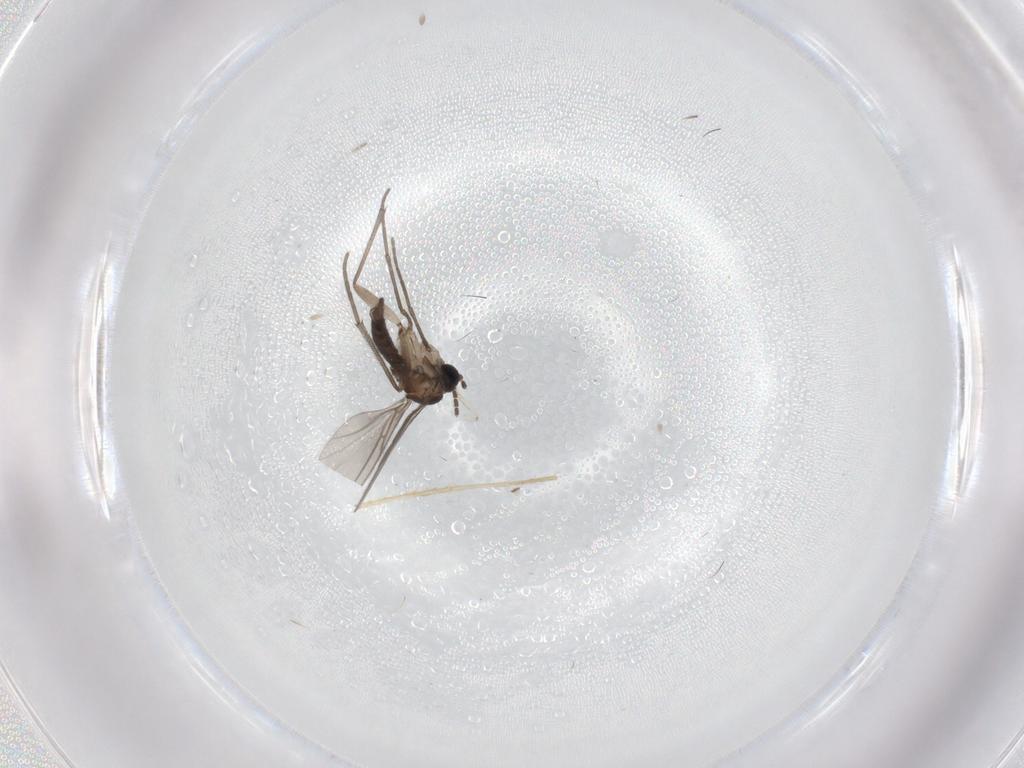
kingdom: Animalia
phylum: Arthropoda
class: Insecta
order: Diptera
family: Sciaridae
